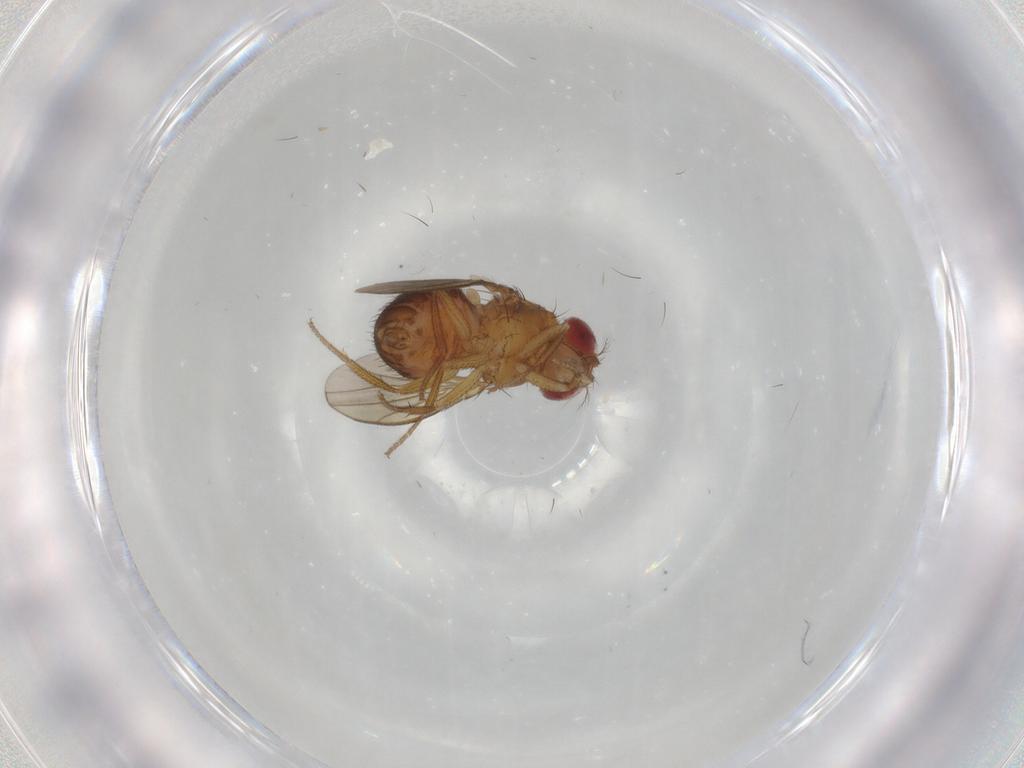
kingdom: Animalia
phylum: Arthropoda
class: Insecta
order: Diptera
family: Drosophilidae
